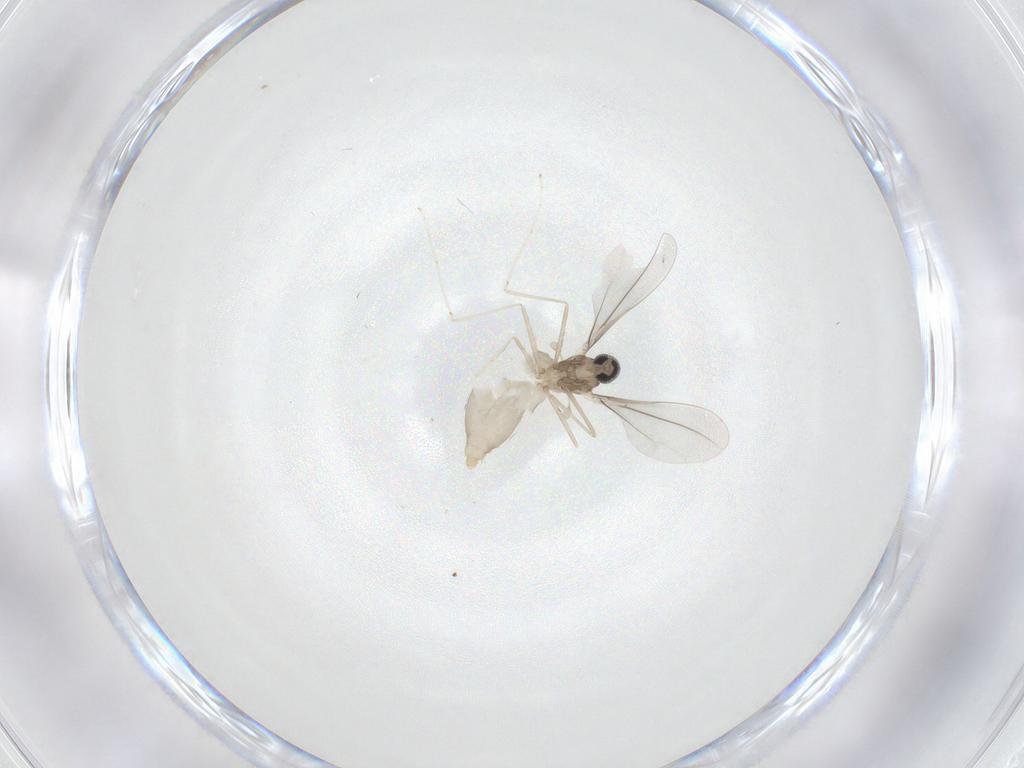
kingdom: Animalia
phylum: Arthropoda
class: Insecta
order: Diptera
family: Cecidomyiidae
